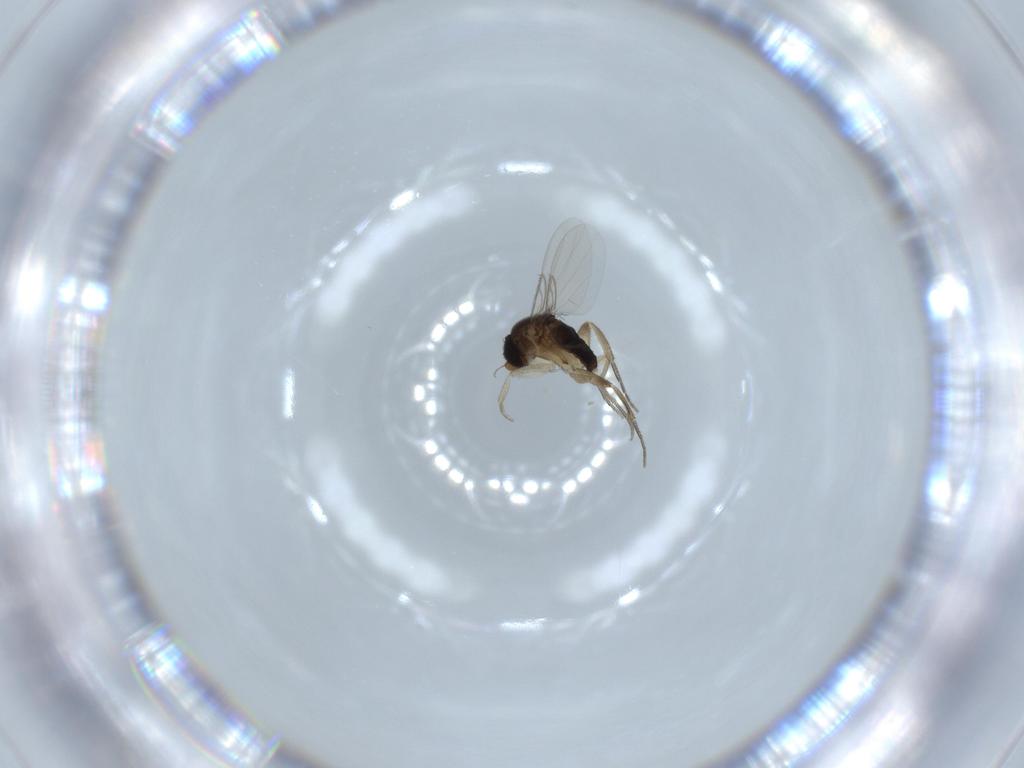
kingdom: Animalia
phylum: Arthropoda
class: Insecta
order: Diptera
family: Phoridae
